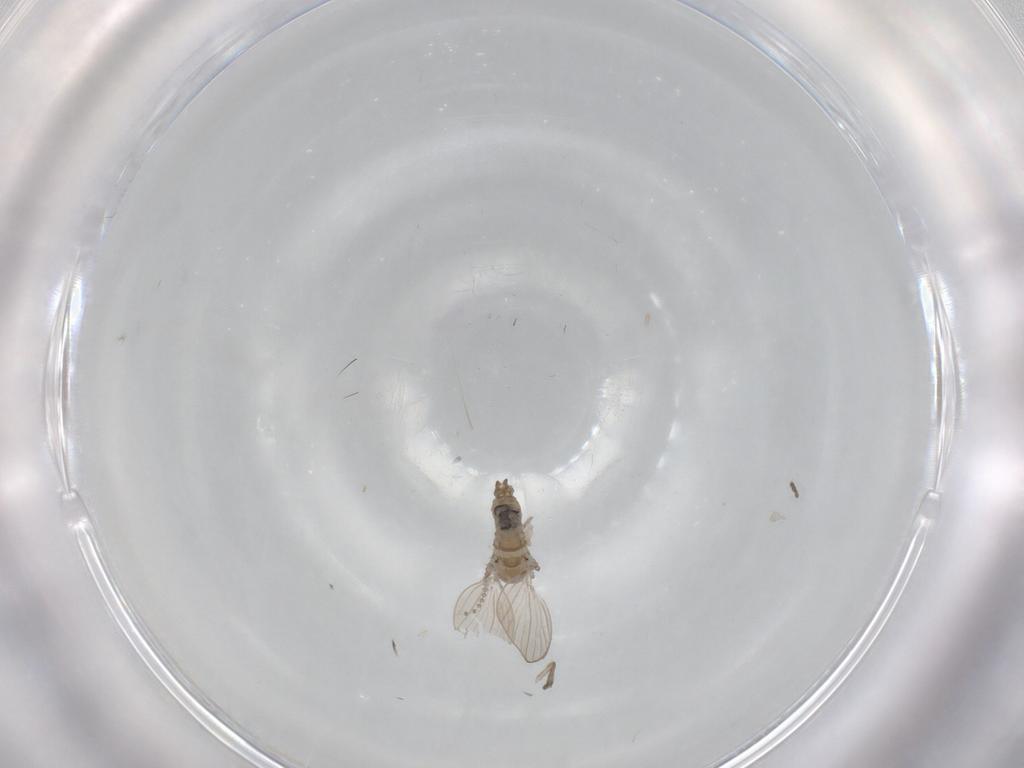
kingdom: Animalia
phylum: Arthropoda
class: Insecta
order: Diptera
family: Psychodidae
